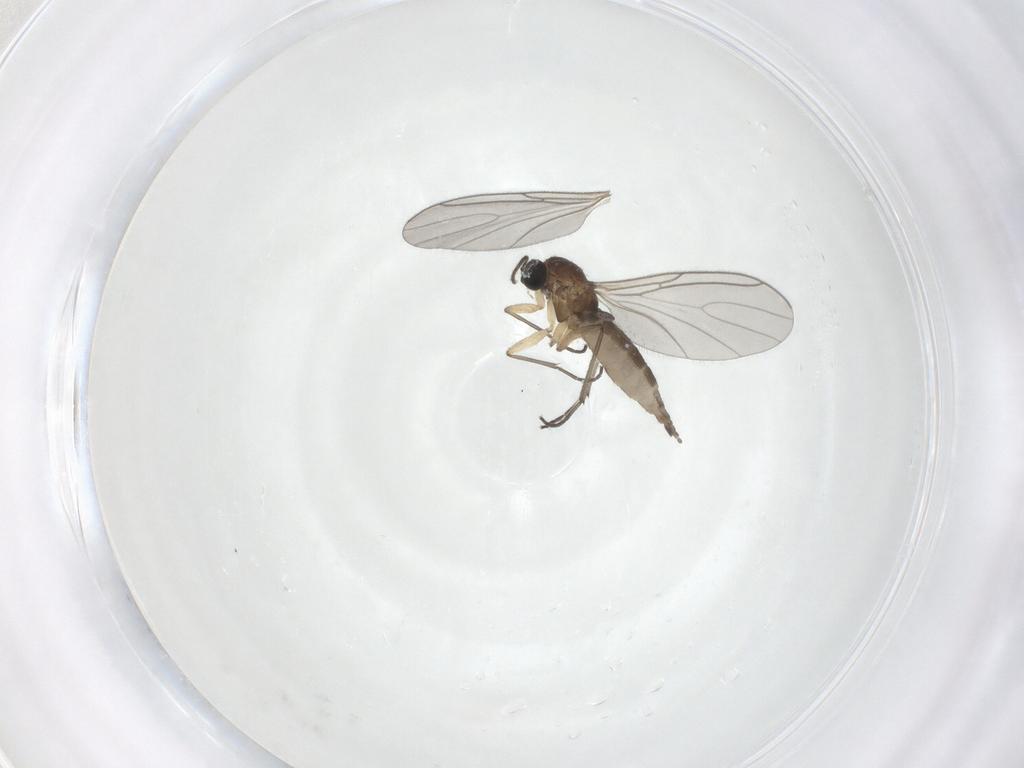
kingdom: Animalia
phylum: Arthropoda
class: Insecta
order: Diptera
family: Sciaridae
